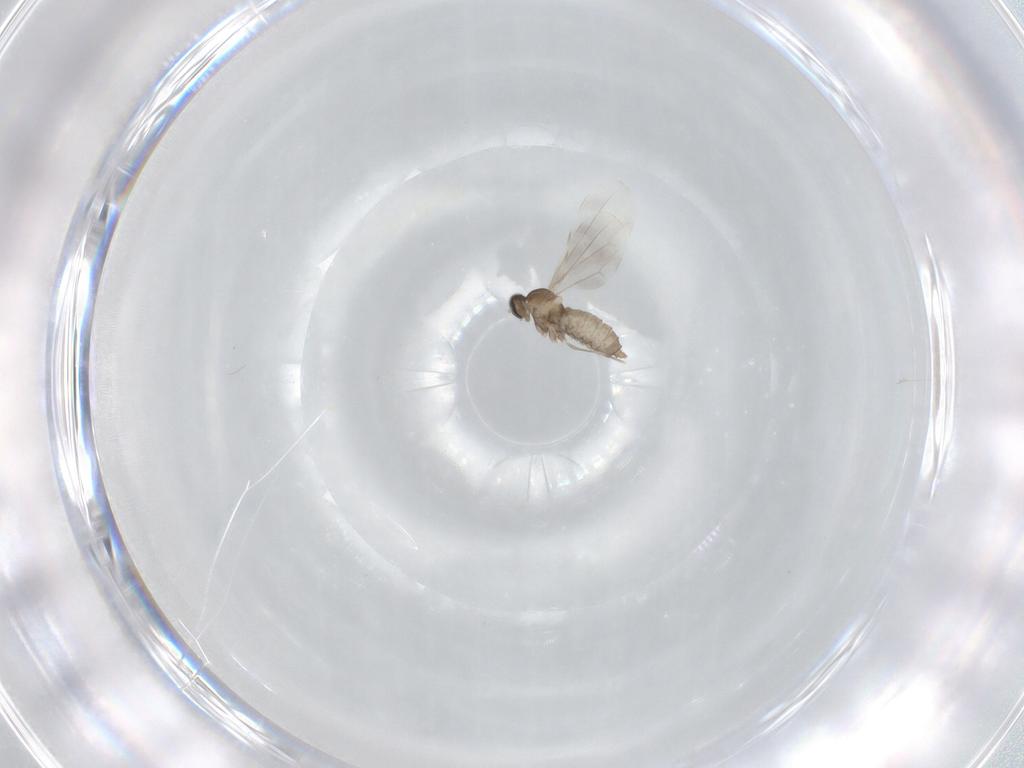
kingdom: Animalia
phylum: Arthropoda
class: Insecta
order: Diptera
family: Cecidomyiidae
